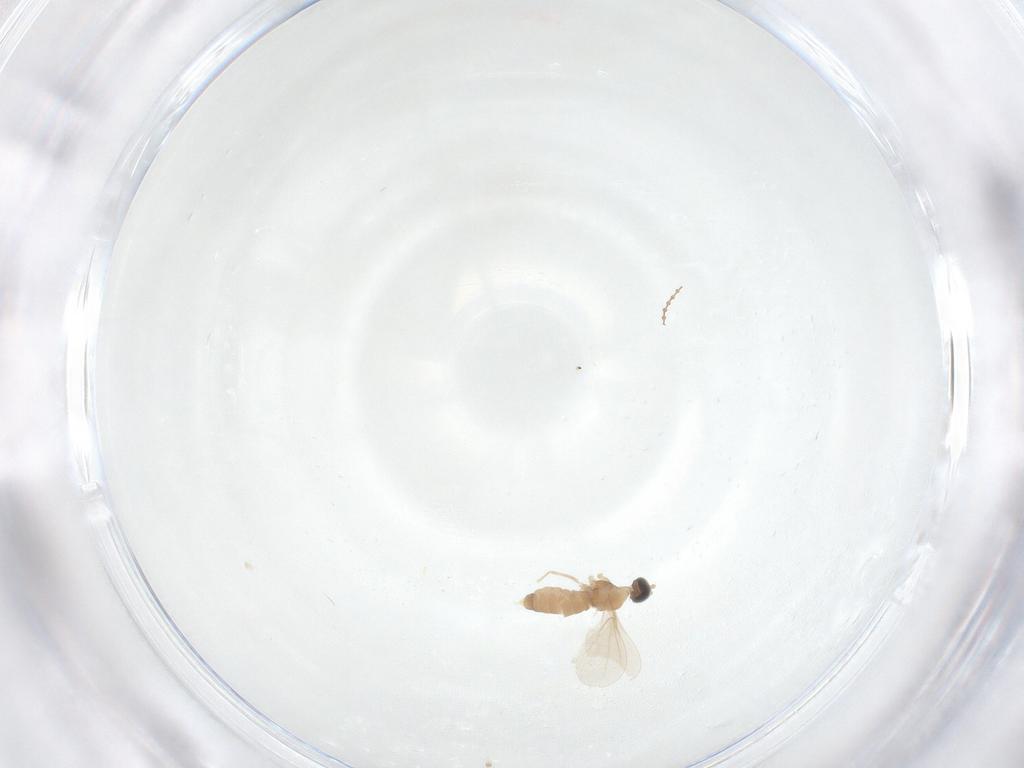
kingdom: Animalia
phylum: Arthropoda
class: Insecta
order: Diptera
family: Cecidomyiidae
